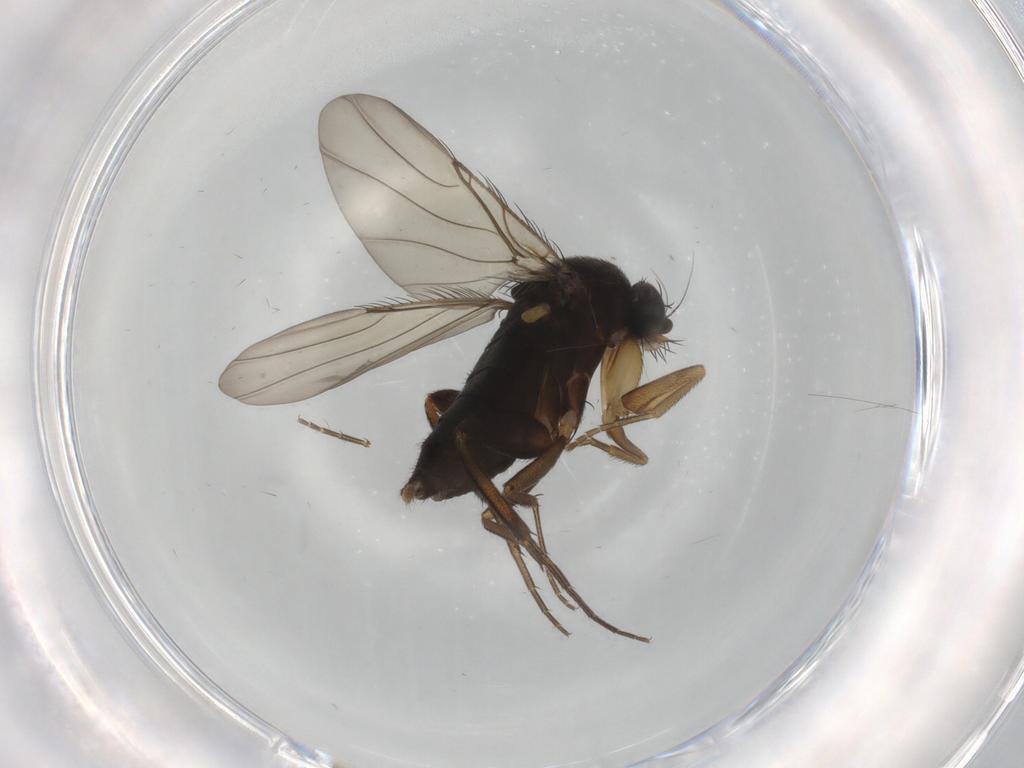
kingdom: Animalia
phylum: Arthropoda
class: Insecta
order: Diptera
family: Phoridae
